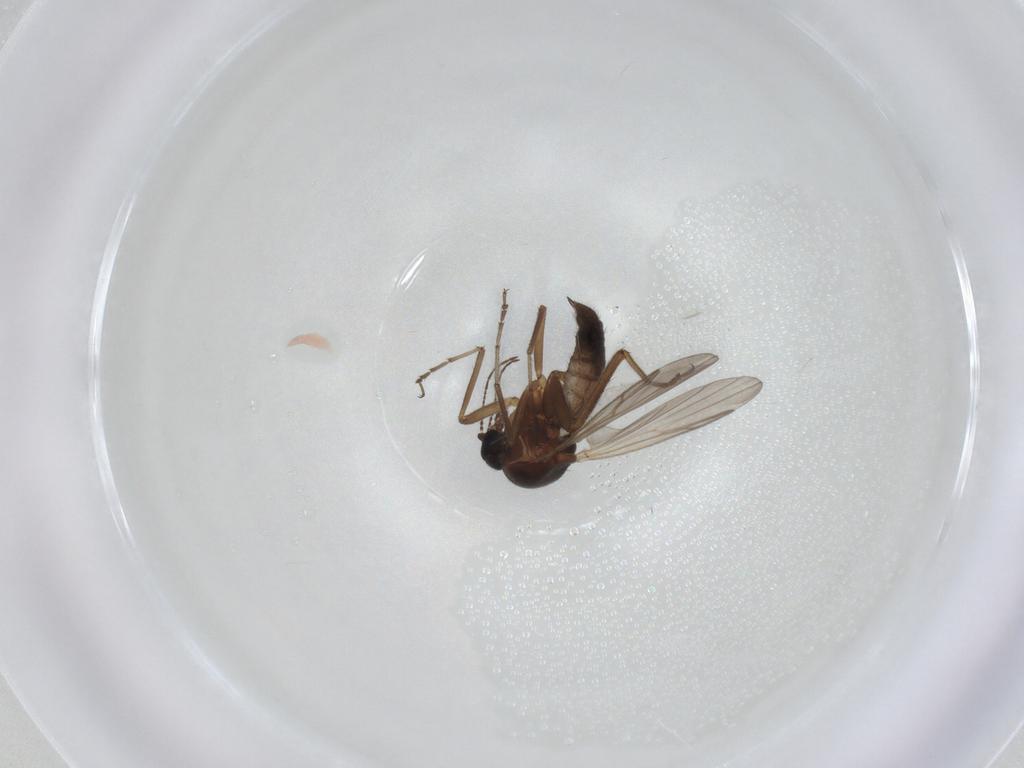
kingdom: Animalia
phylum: Arthropoda
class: Insecta
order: Diptera
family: Ceratopogonidae
